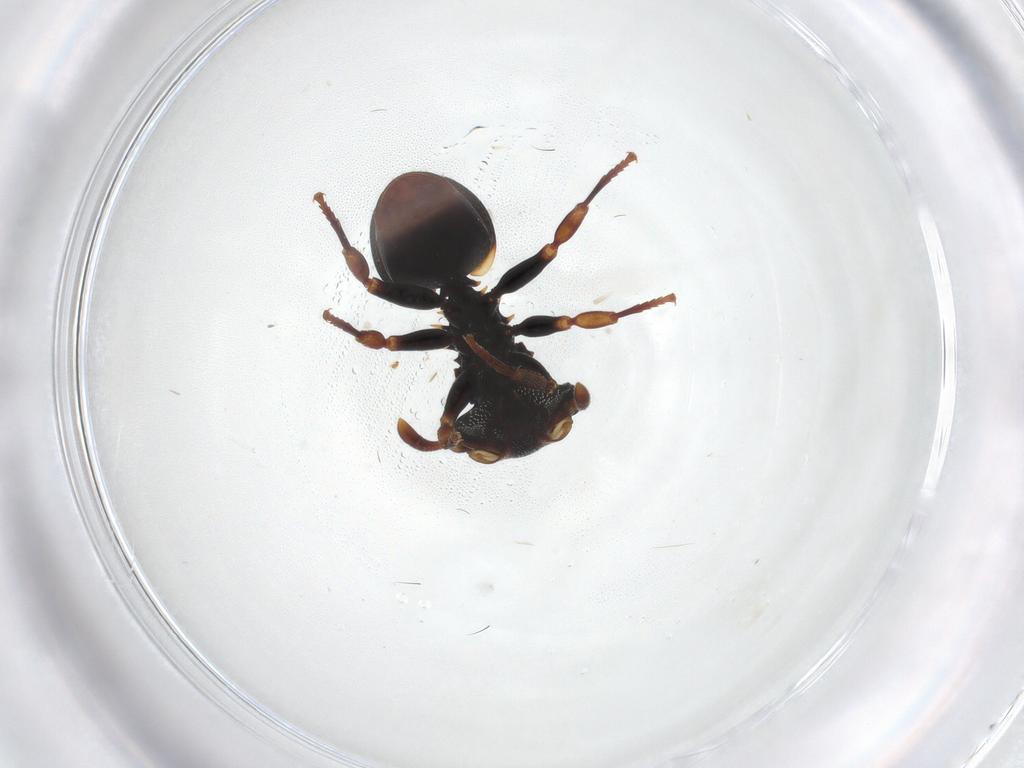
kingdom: Animalia
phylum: Arthropoda
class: Insecta
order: Hymenoptera
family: Formicidae
